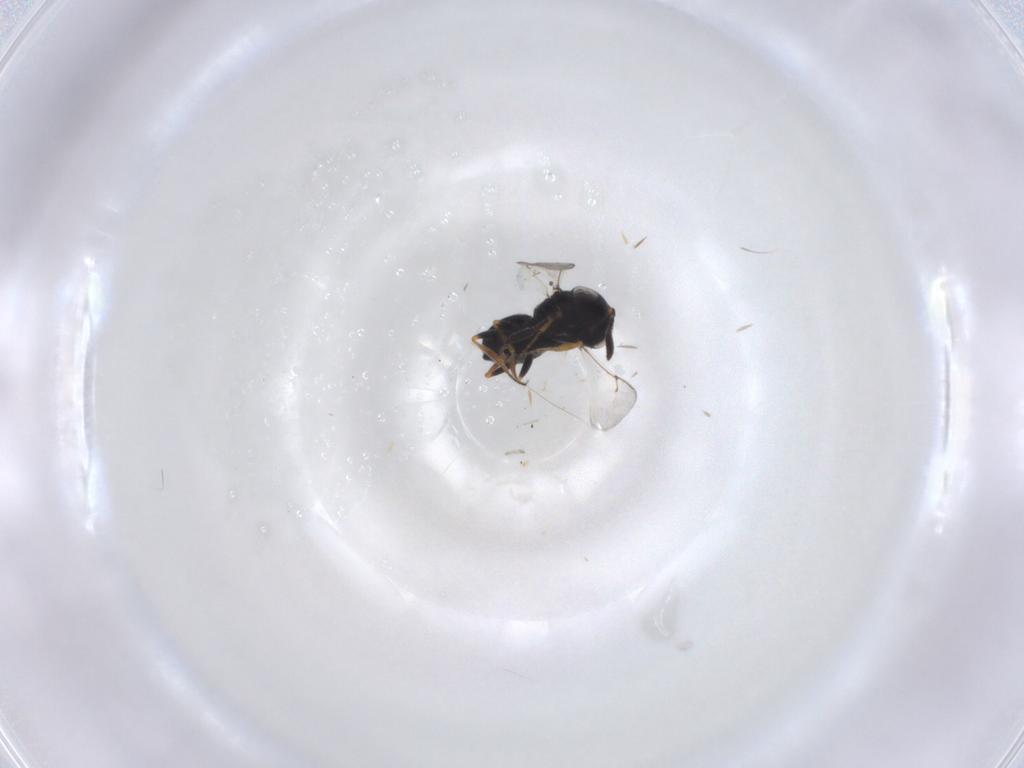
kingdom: Animalia
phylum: Arthropoda
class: Insecta
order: Hymenoptera
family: Scelionidae
